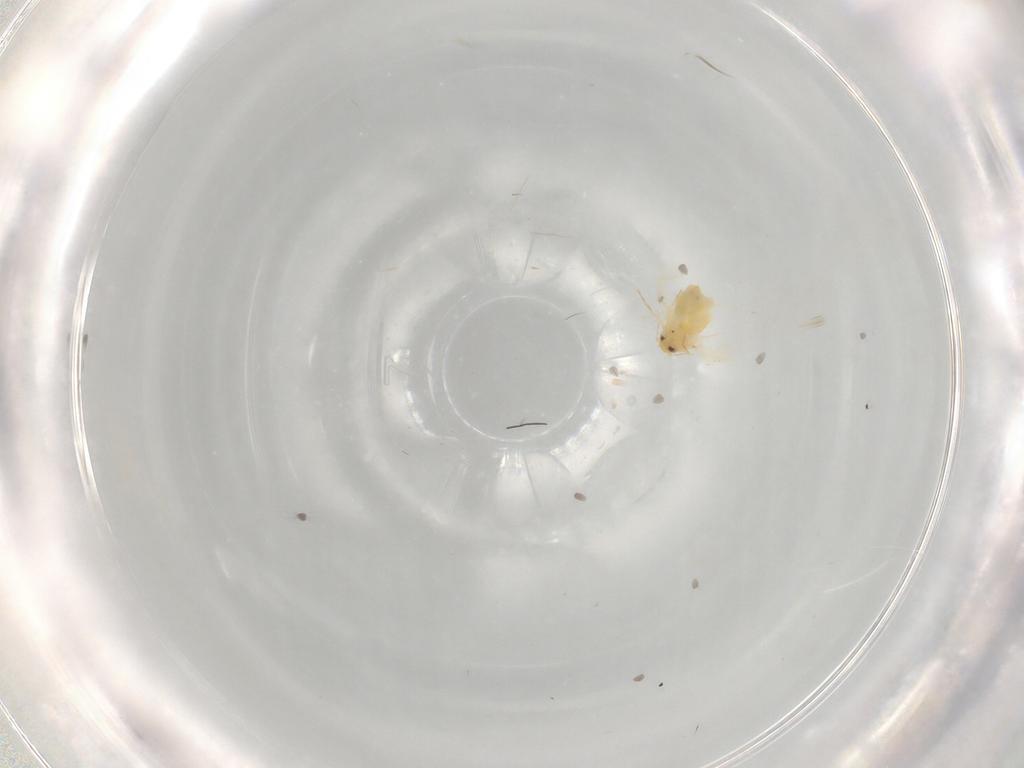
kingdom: Animalia
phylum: Arthropoda
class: Insecta
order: Hemiptera
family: Aleyrodidae
